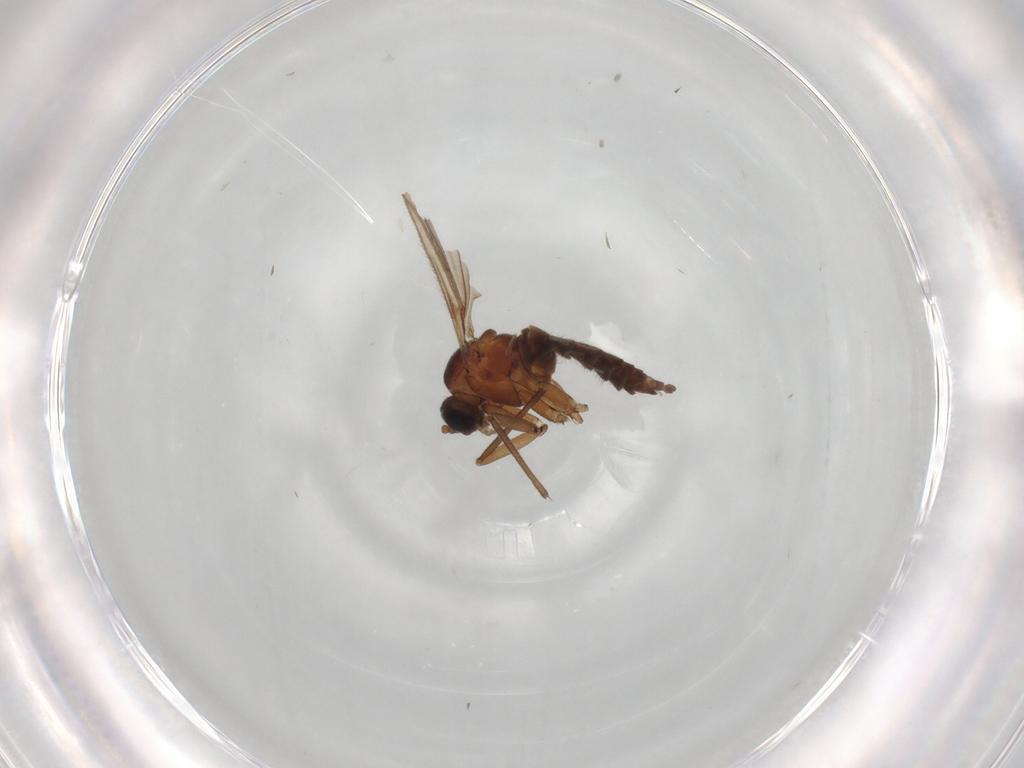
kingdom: Animalia
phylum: Arthropoda
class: Insecta
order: Diptera
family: Sciaridae
